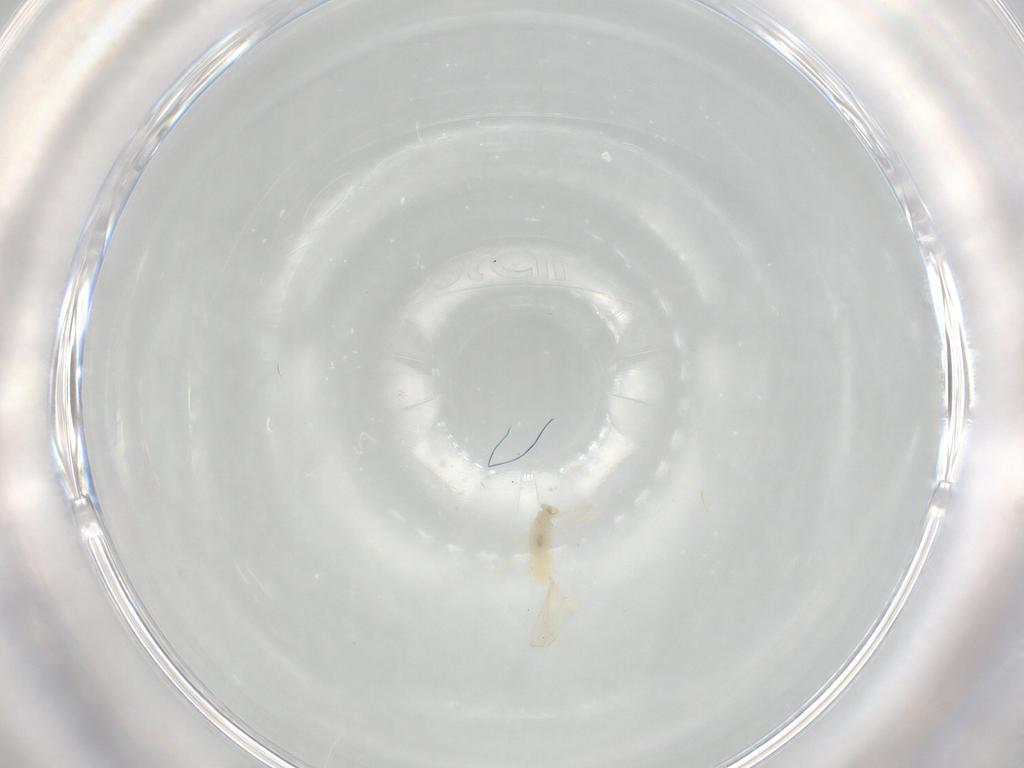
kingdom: Animalia
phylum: Arthropoda
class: Insecta
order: Diptera
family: Cecidomyiidae
